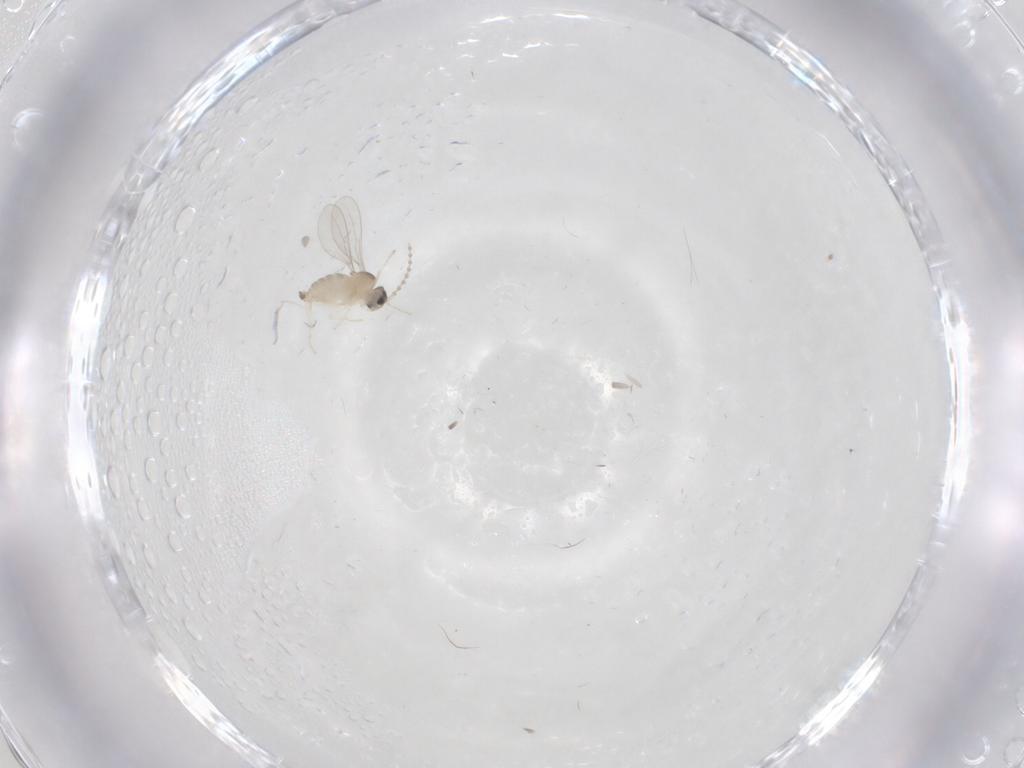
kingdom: Animalia
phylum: Arthropoda
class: Insecta
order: Diptera
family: Cecidomyiidae
